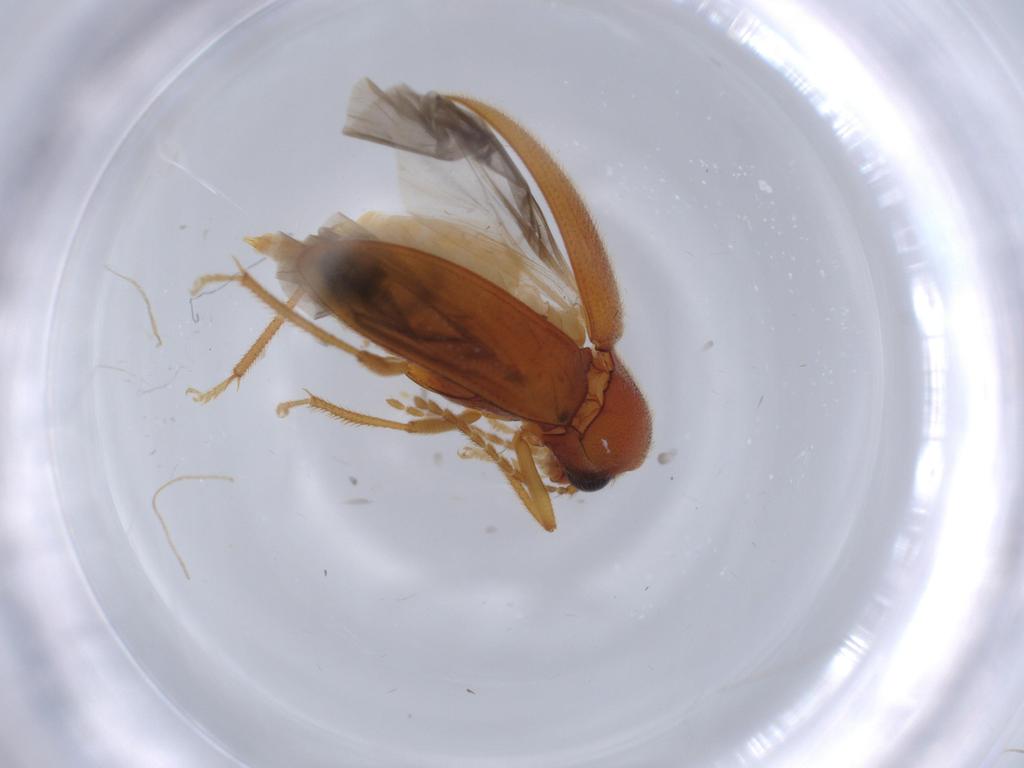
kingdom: Animalia
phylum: Arthropoda
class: Insecta
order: Coleoptera
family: Ptilodactylidae
